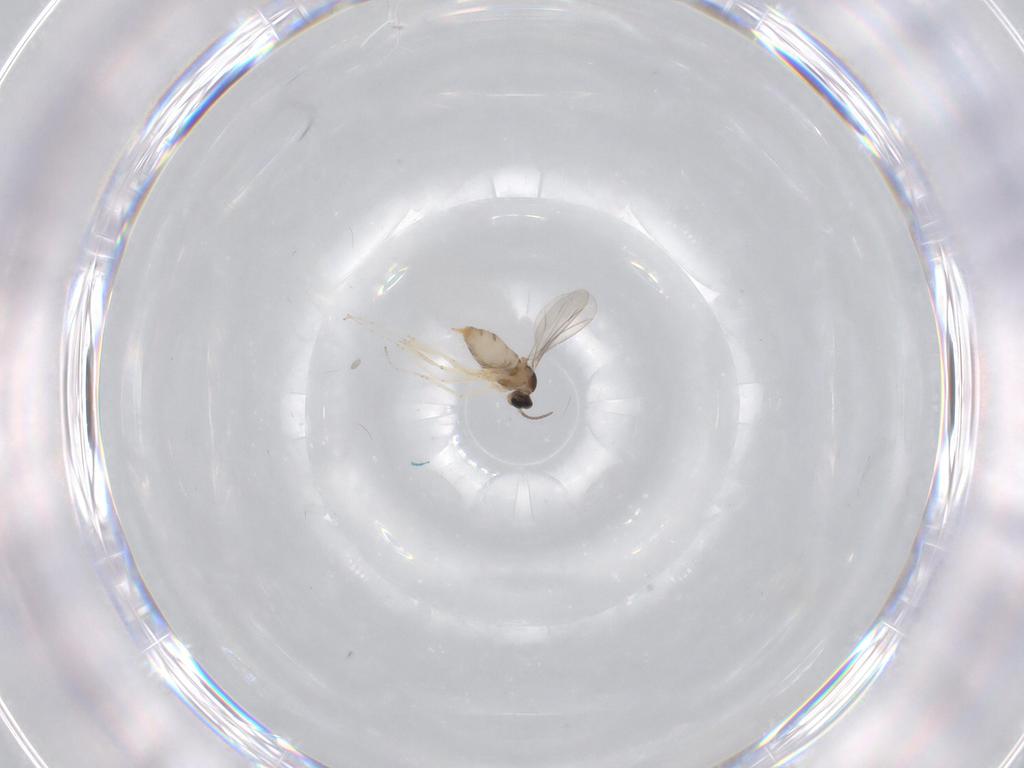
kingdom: Animalia
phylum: Arthropoda
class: Insecta
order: Diptera
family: Cecidomyiidae
